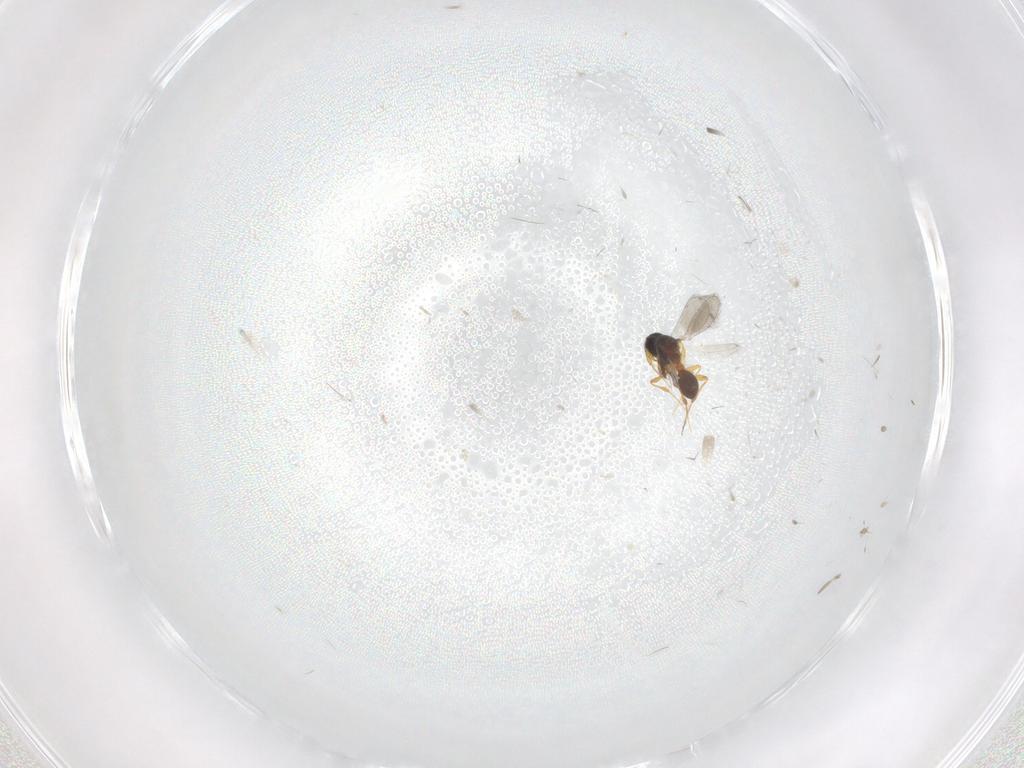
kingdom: Animalia
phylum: Arthropoda
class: Insecta
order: Hymenoptera
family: Platygastridae
